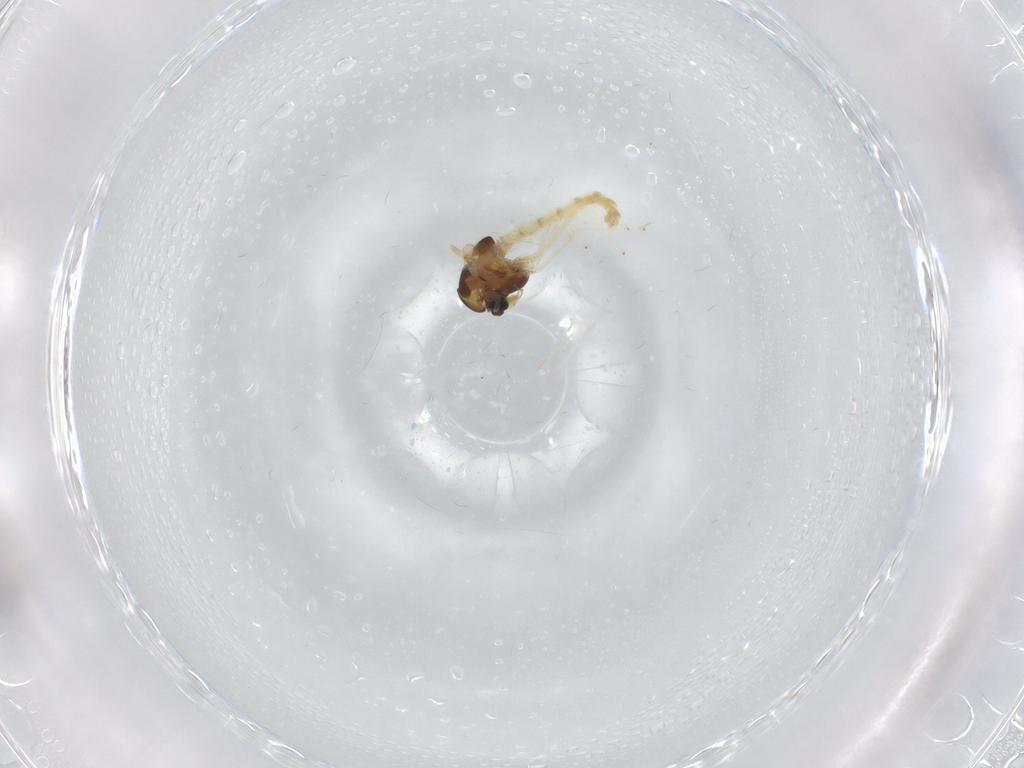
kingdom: Animalia
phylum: Arthropoda
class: Insecta
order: Diptera
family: Chironomidae
